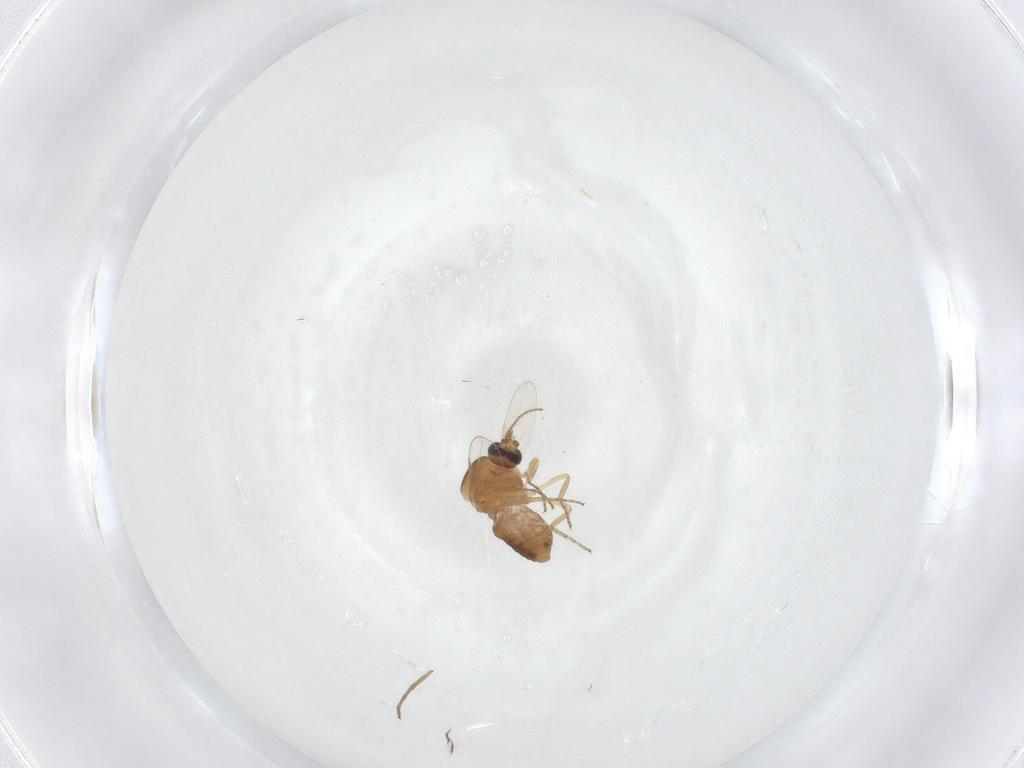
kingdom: Animalia
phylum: Arthropoda
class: Insecta
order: Diptera
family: Ceratopogonidae
